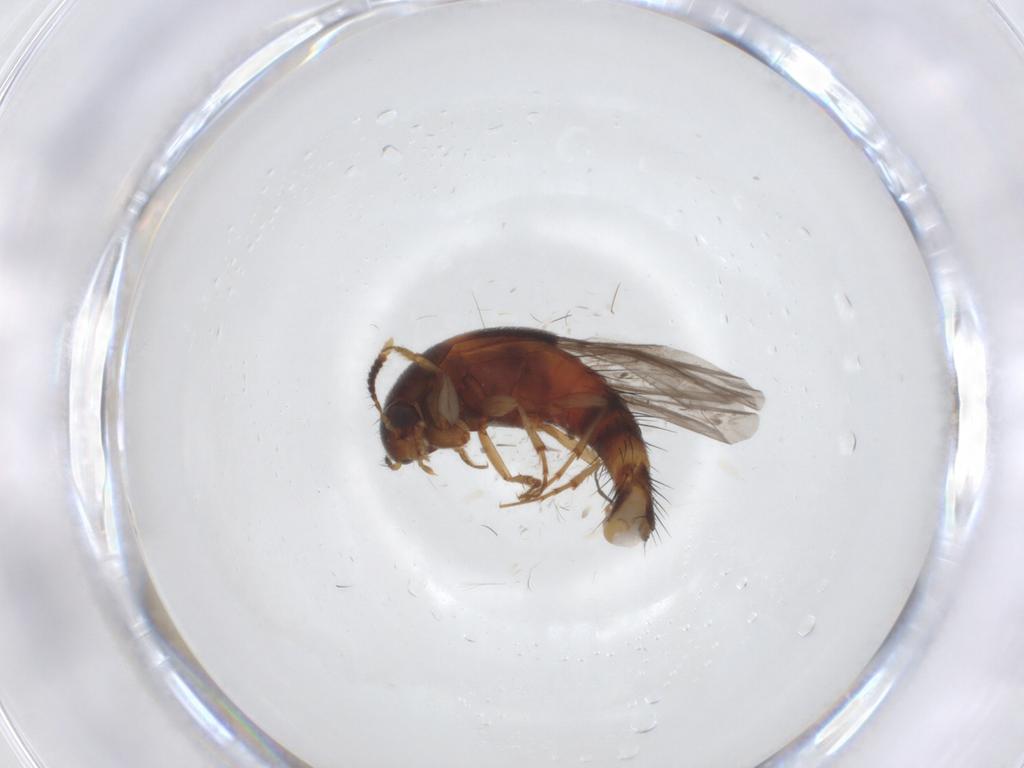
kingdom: Animalia
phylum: Arthropoda
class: Insecta
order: Coleoptera
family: Staphylinidae
